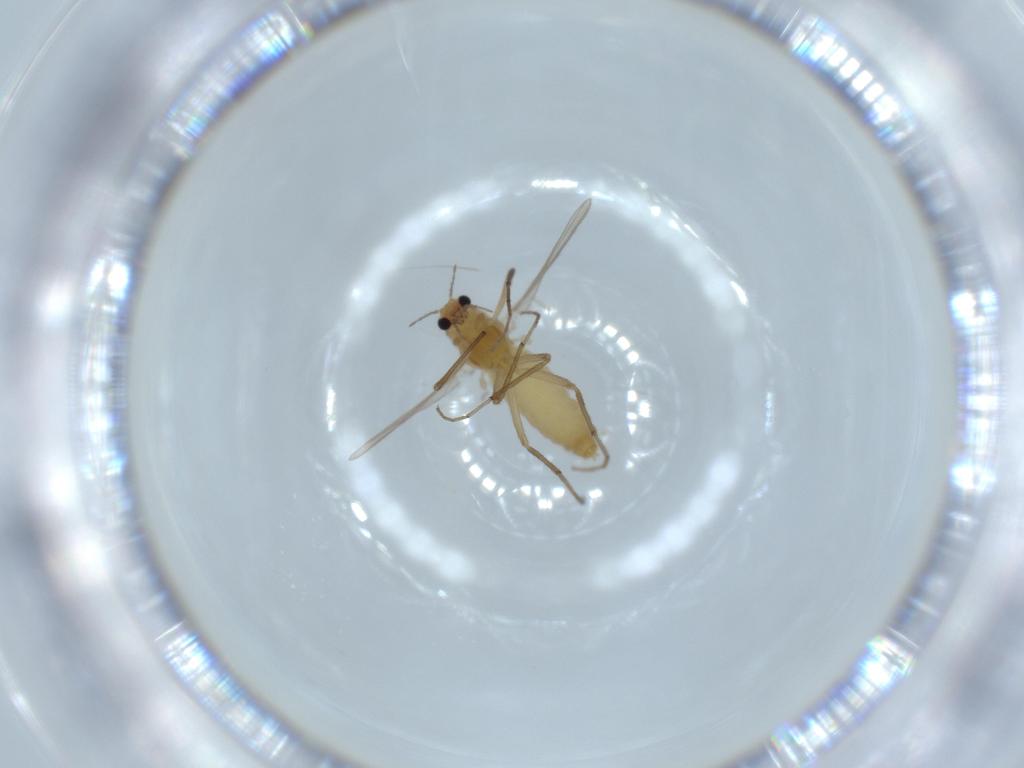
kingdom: Animalia
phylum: Arthropoda
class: Insecta
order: Diptera
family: Chironomidae
